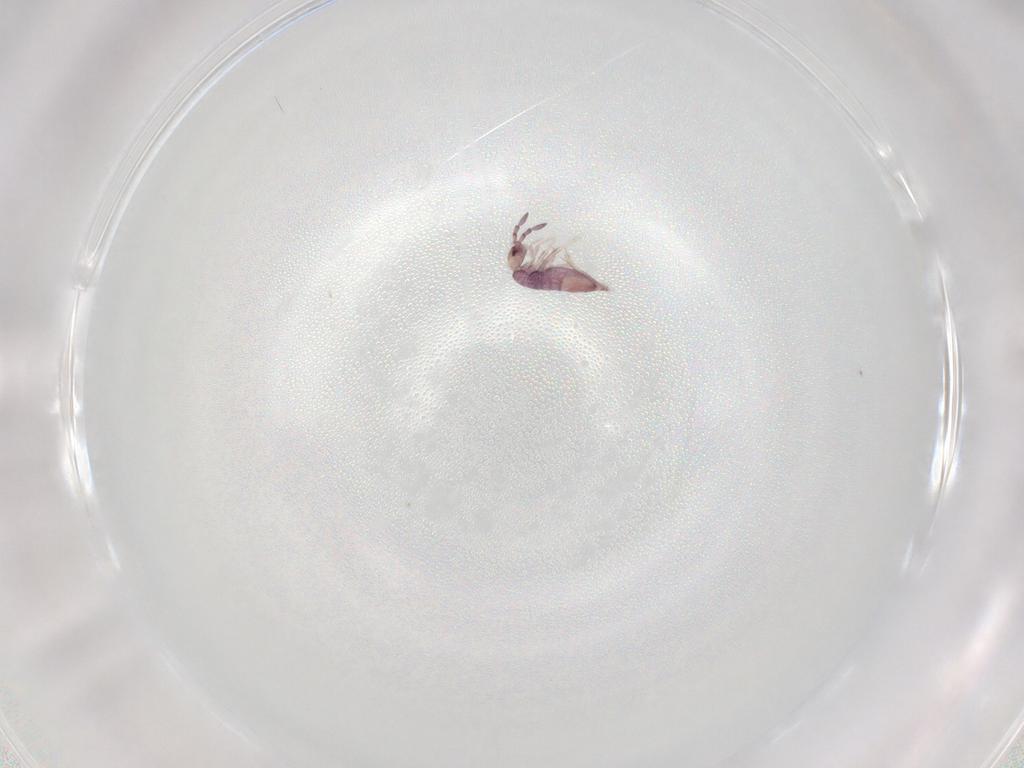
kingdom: Animalia
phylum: Arthropoda
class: Collembola
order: Entomobryomorpha
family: Entomobryidae
